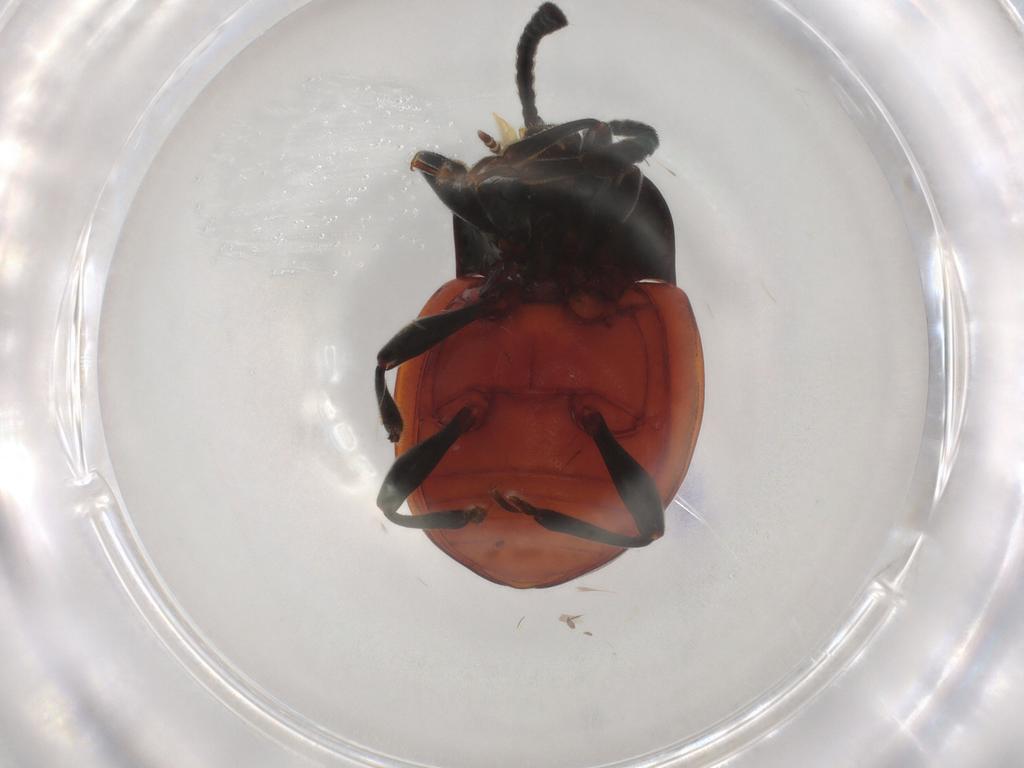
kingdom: Animalia
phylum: Arthropoda
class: Insecta
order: Coleoptera
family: Endomychidae
